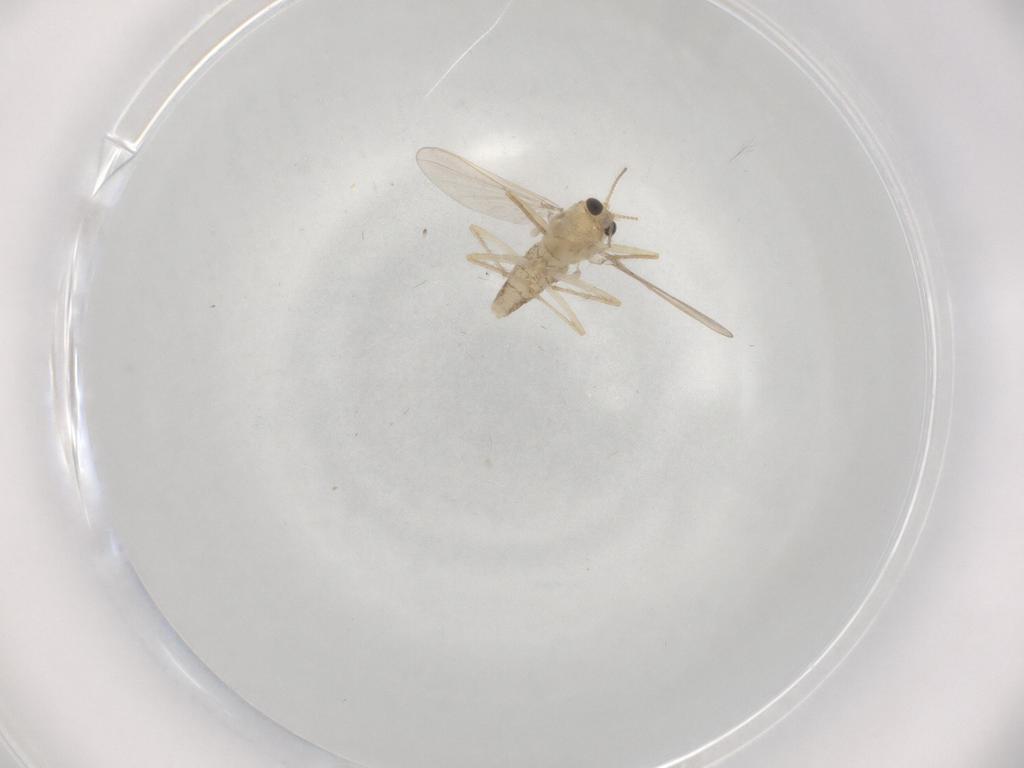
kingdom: Animalia
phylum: Arthropoda
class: Insecta
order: Diptera
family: Chironomidae
